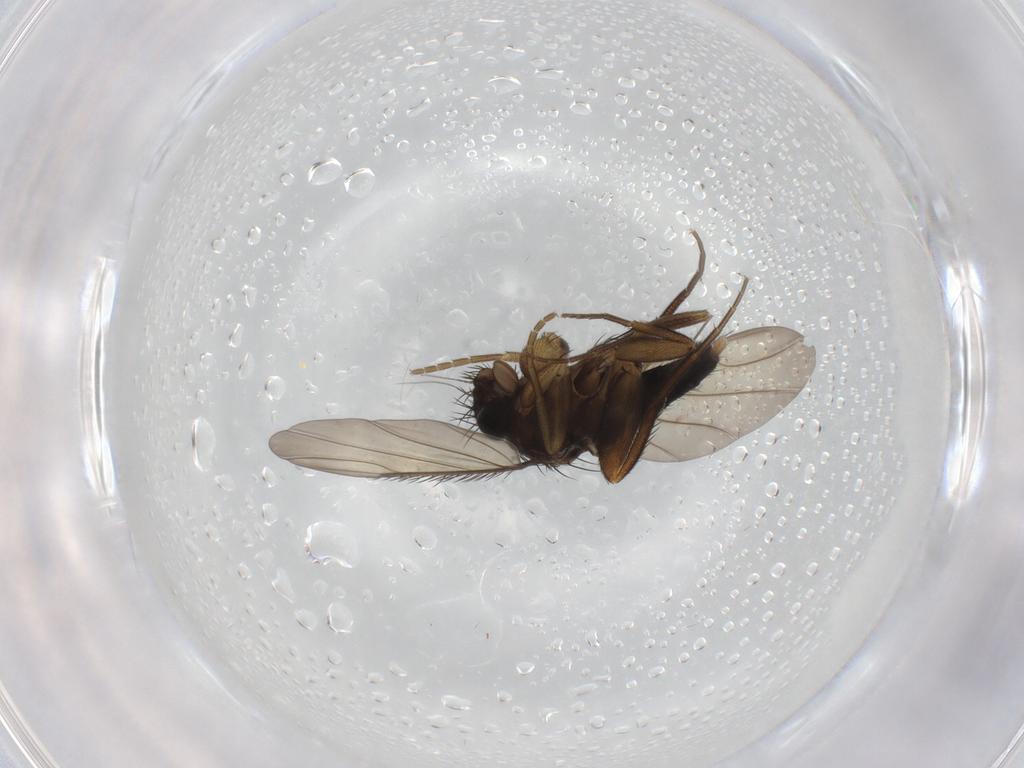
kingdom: Animalia
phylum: Arthropoda
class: Insecta
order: Diptera
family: Phoridae
